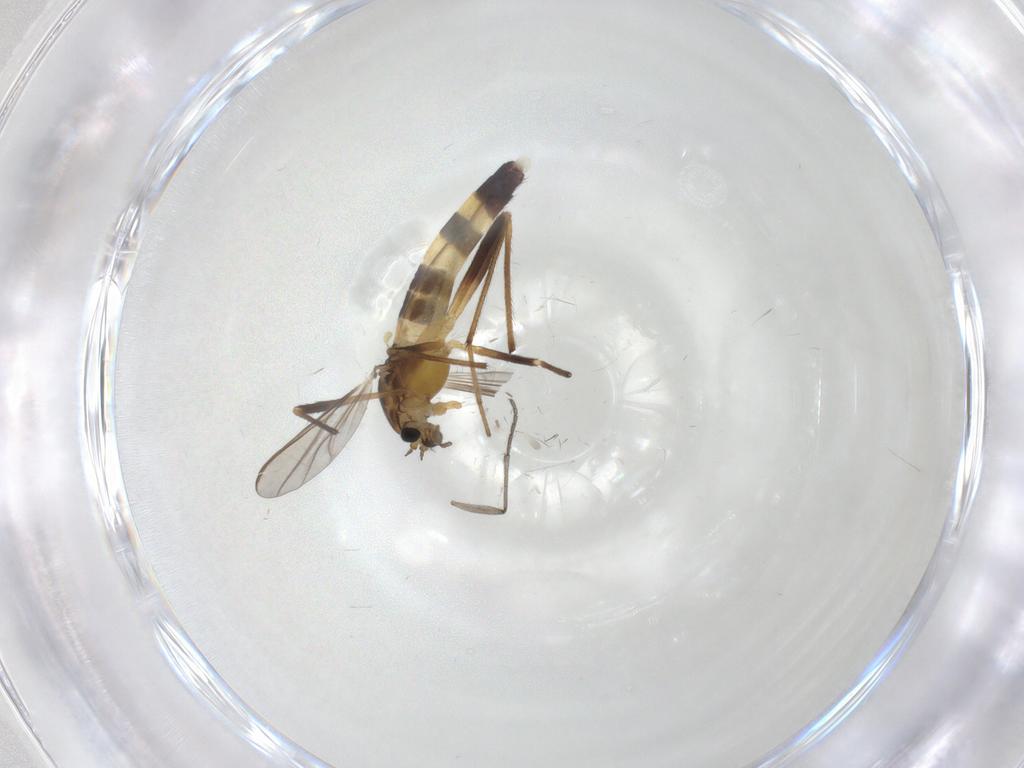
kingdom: Animalia
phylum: Arthropoda
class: Insecta
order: Diptera
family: Chironomidae
